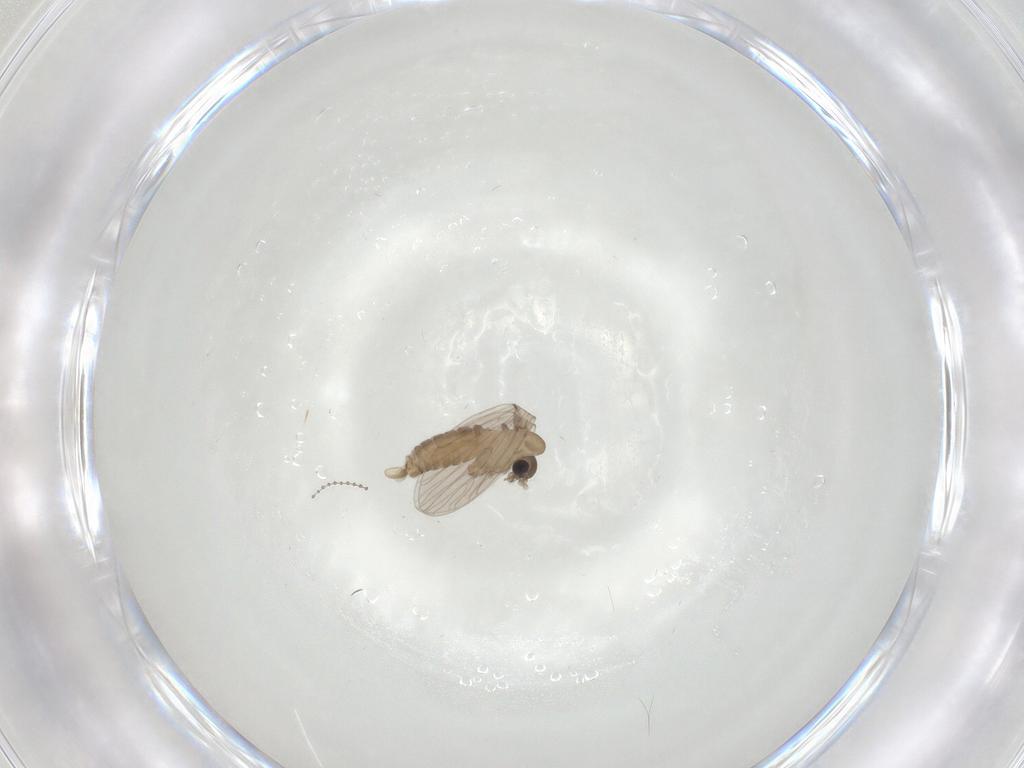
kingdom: Animalia
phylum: Arthropoda
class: Insecta
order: Diptera
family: Cecidomyiidae
